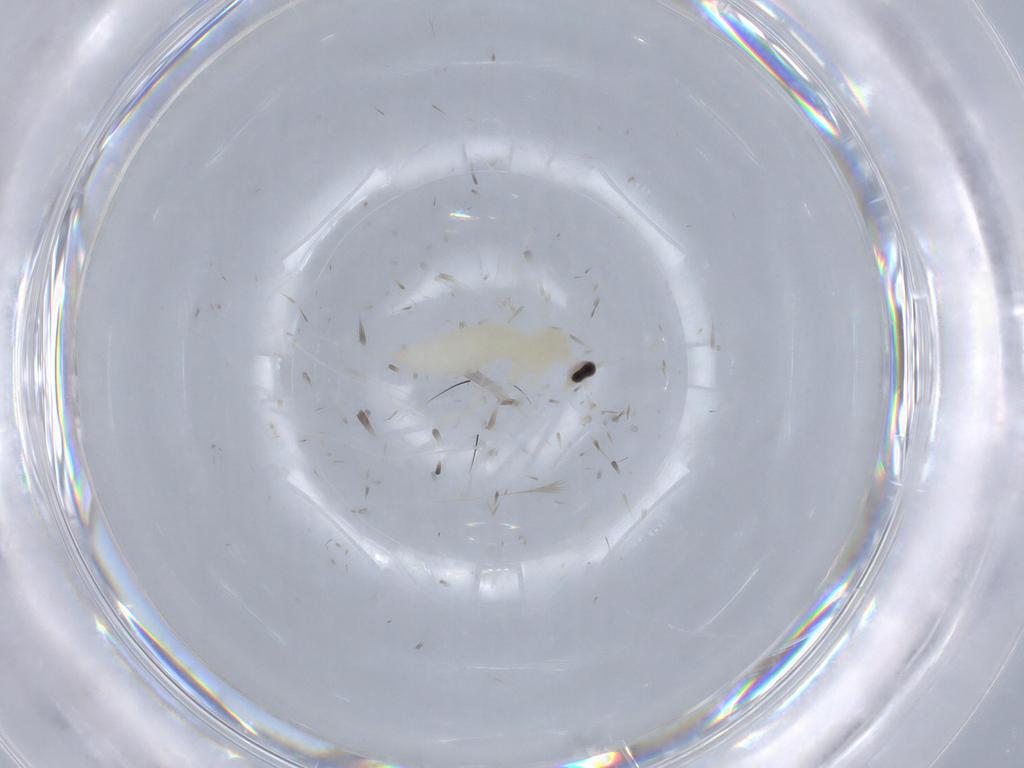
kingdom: Animalia
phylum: Arthropoda
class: Insecta
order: Diptera
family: Cecidomyiidae
